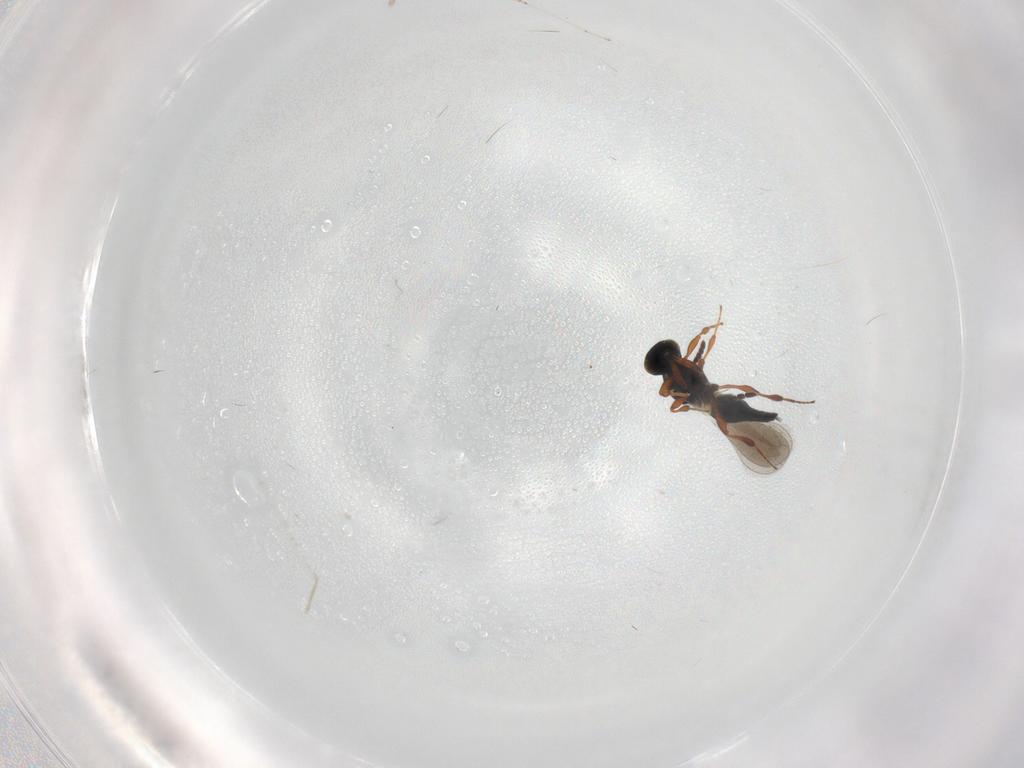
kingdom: Animalia
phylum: Arthropoda
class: Insecta
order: Hymenoptera
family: Platygastridae
